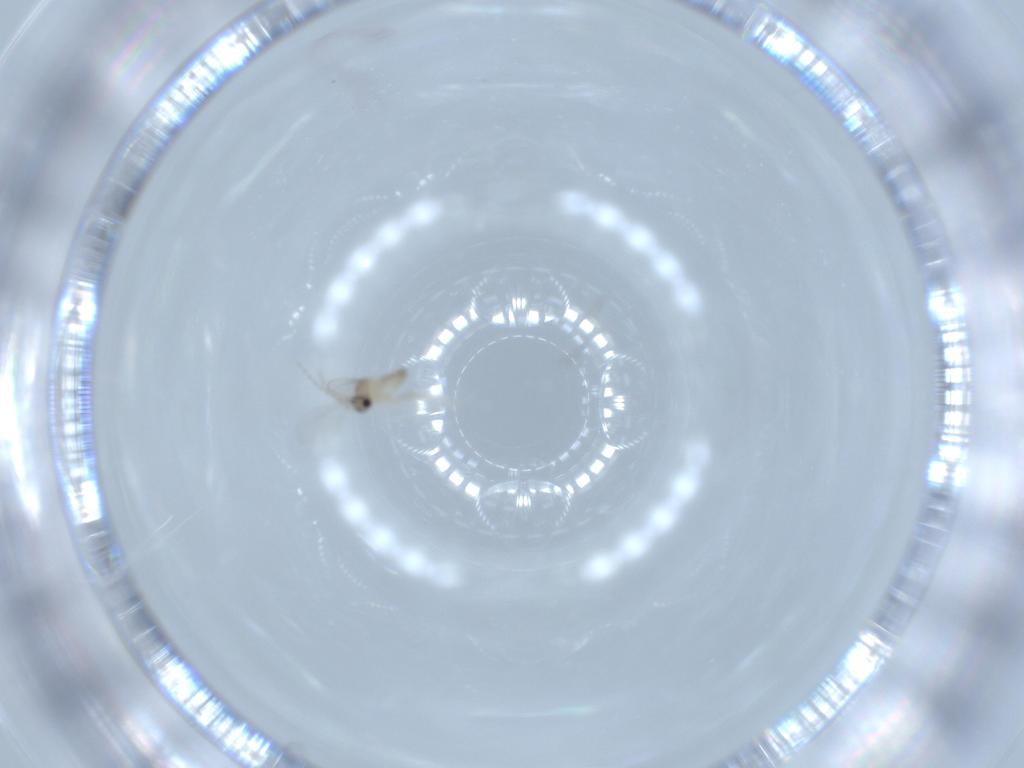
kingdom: Animalia
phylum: Arthropoda
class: Insecta
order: Diptera
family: Cecidomyiidae
